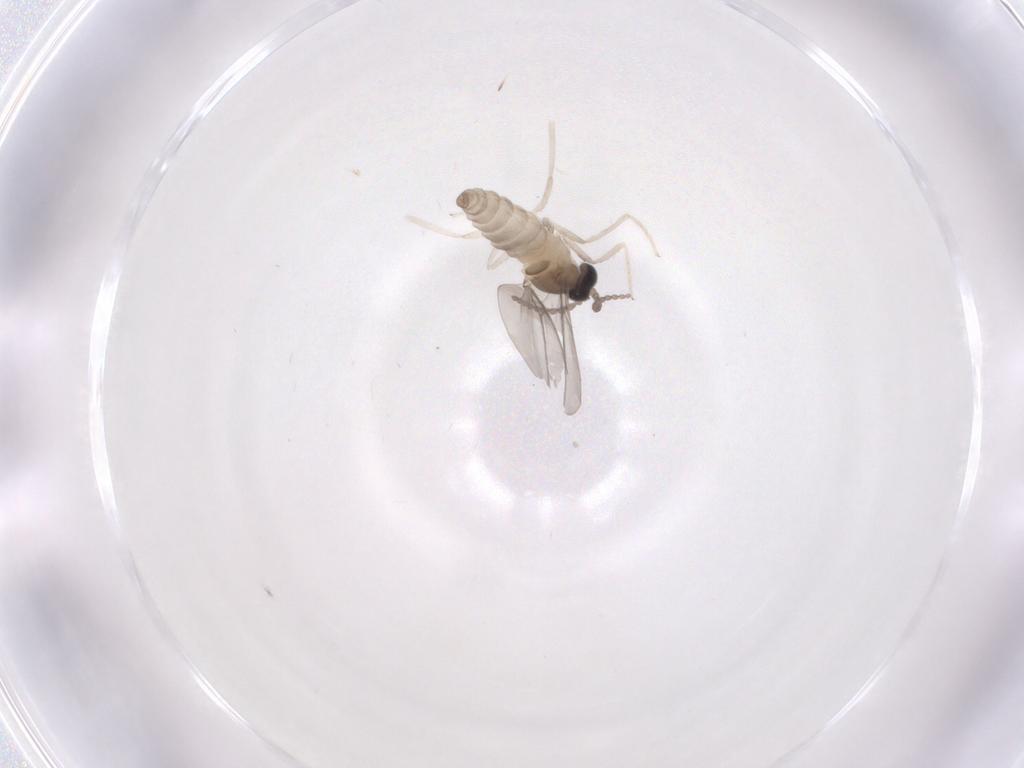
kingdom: Animalia
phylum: Arthropoda
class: Insecta
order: Diptera
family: Cecidomyiidae
